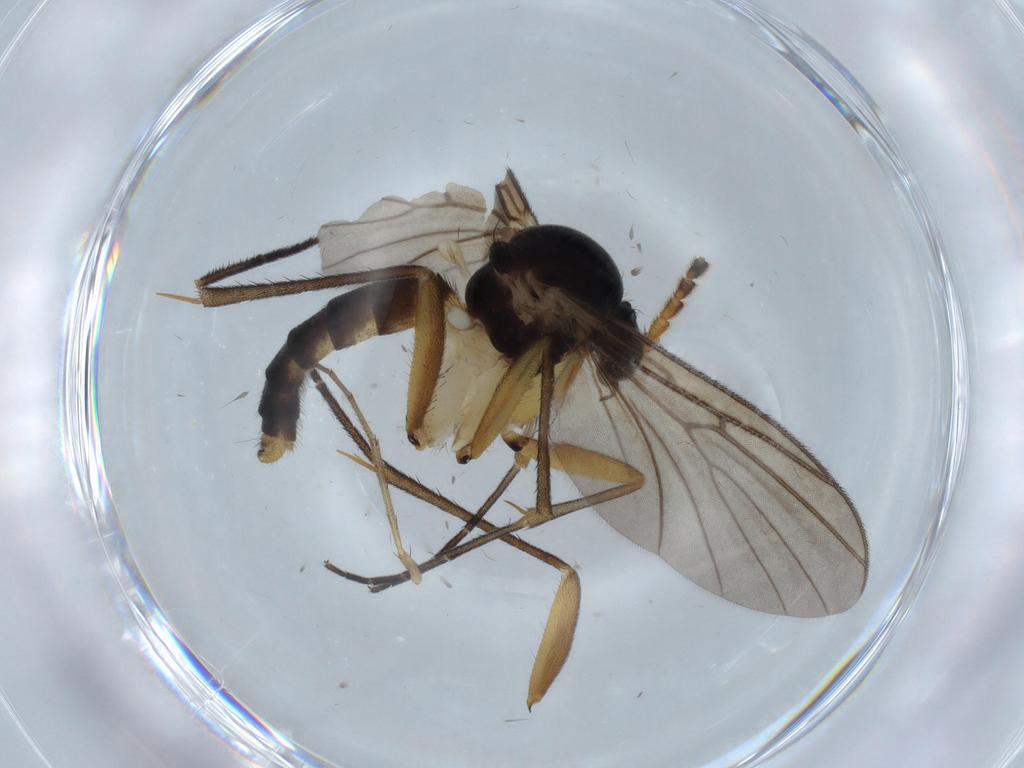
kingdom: Animalia
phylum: Arthropoda
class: Insecta
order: Diptera
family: Cecidomyiidae
